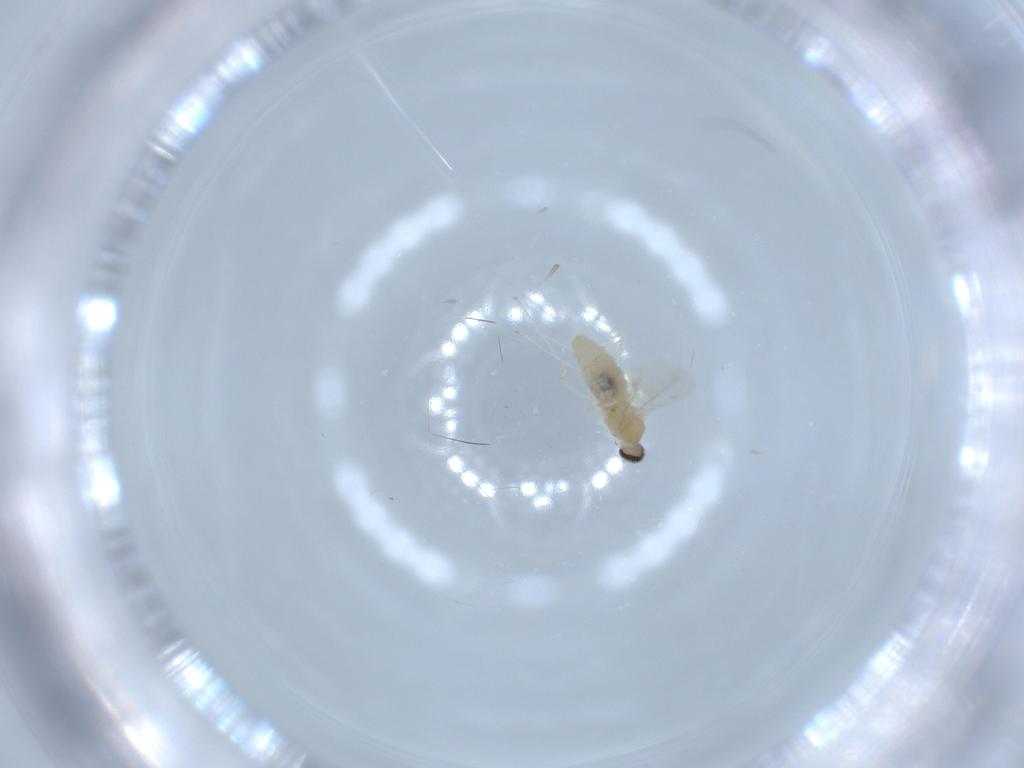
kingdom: Animalia
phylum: Arthropoda
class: Insecta
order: Diptera
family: Cecidomyiidae
